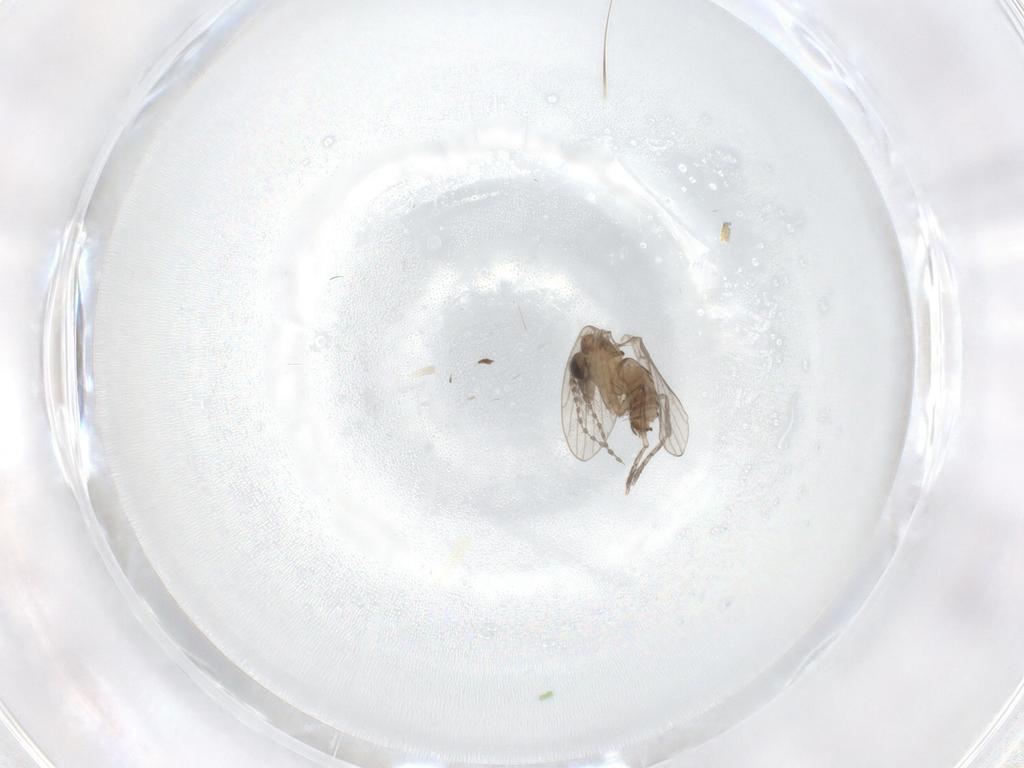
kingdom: Animalia
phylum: Arthropoda
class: Insecta
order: Diptera
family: Psychodidae
